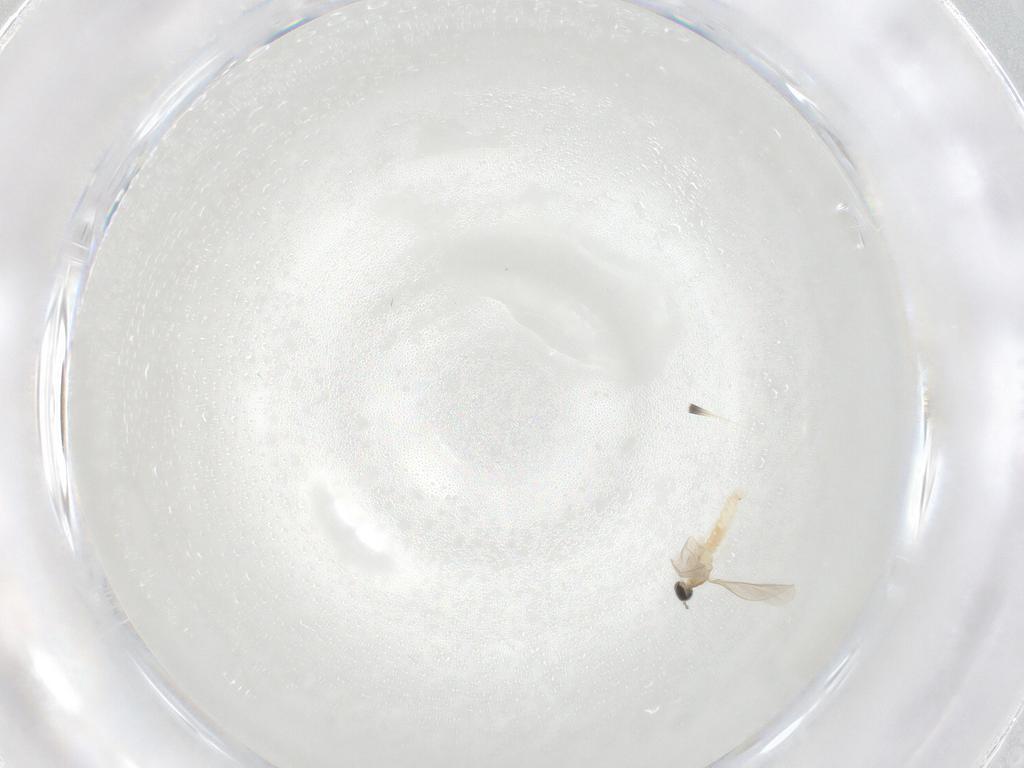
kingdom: Animalia
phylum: Arthropoda
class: Insecta
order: Diptera
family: Cecidomyiidae
